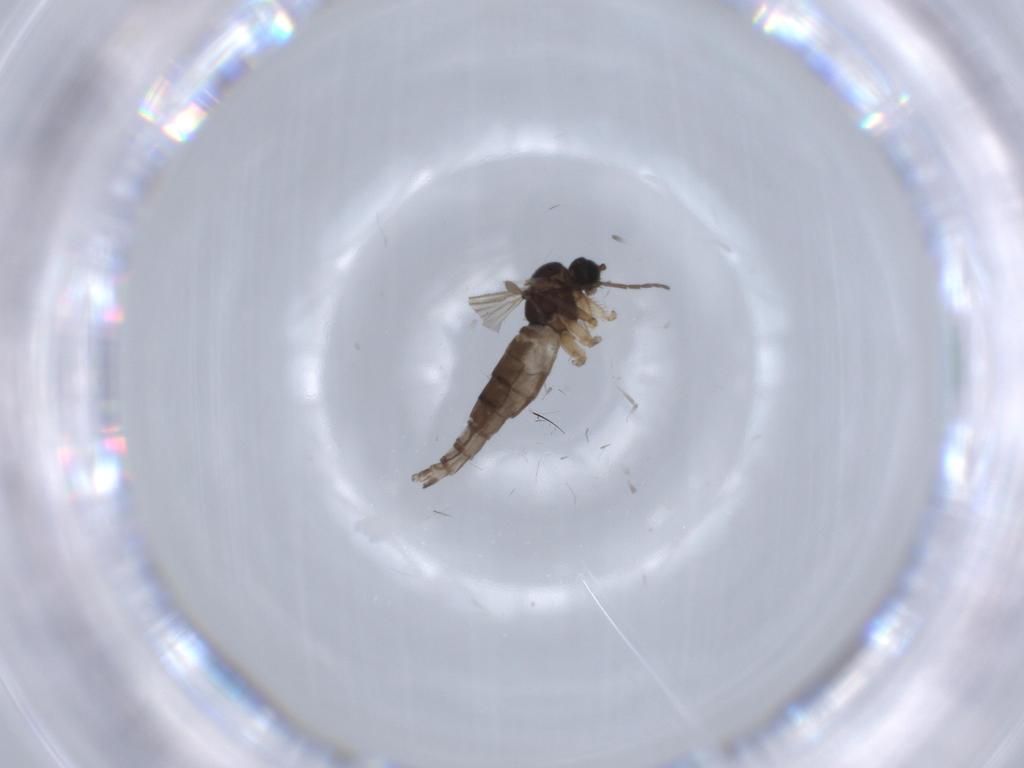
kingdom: Animalia
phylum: Arthropoda
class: Insecta
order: Diptera
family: Sciaridae
